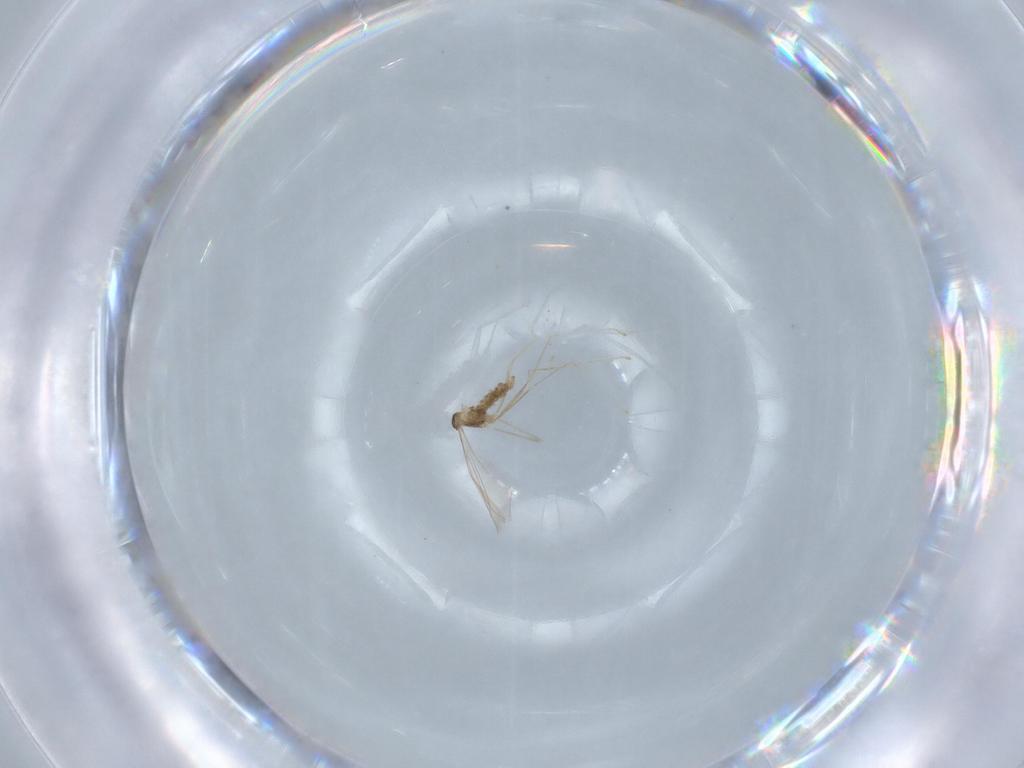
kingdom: Animalia
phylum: Arthropoda
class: Insecta
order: Diptera
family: Cecidomyiidae
